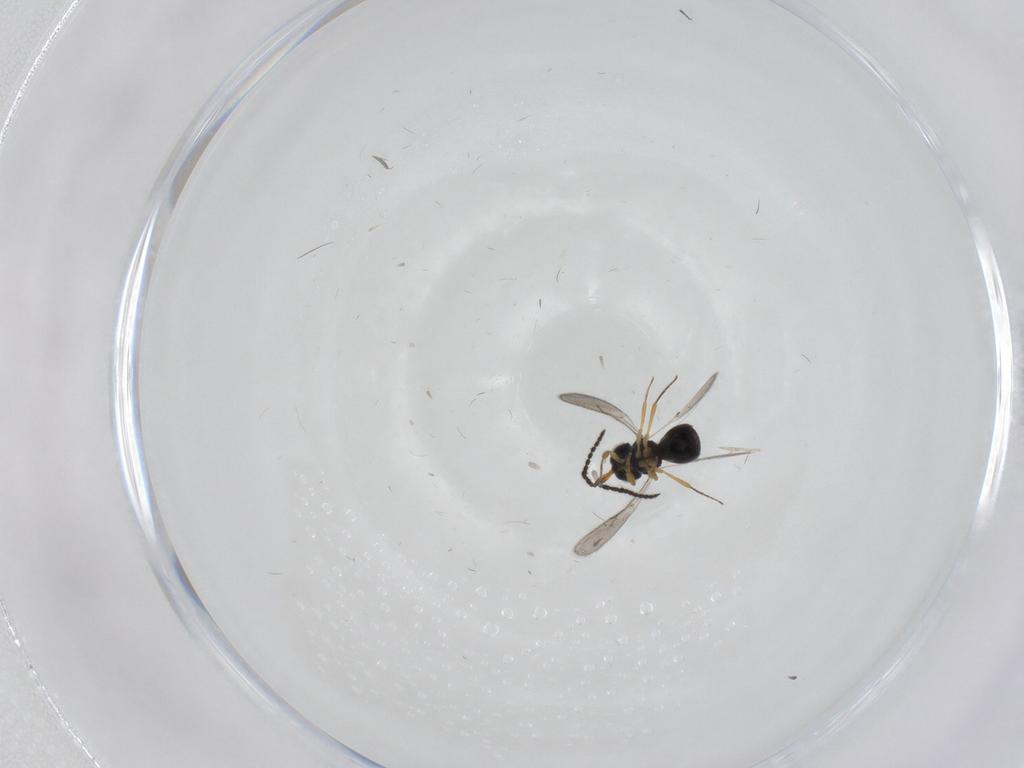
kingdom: Animalia
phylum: Arthropoda
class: Insecta
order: Hymenoptera
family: Scelionidae
